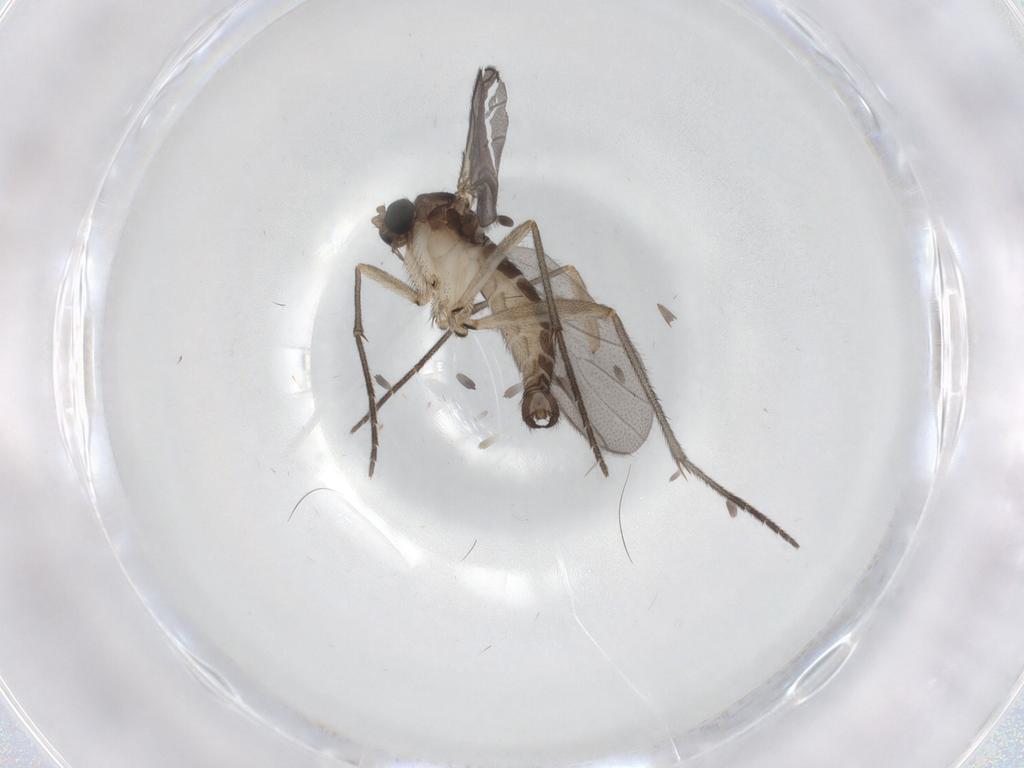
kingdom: Animalia
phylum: Arthropoda
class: Insecta
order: Diptera
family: Sciaridae
